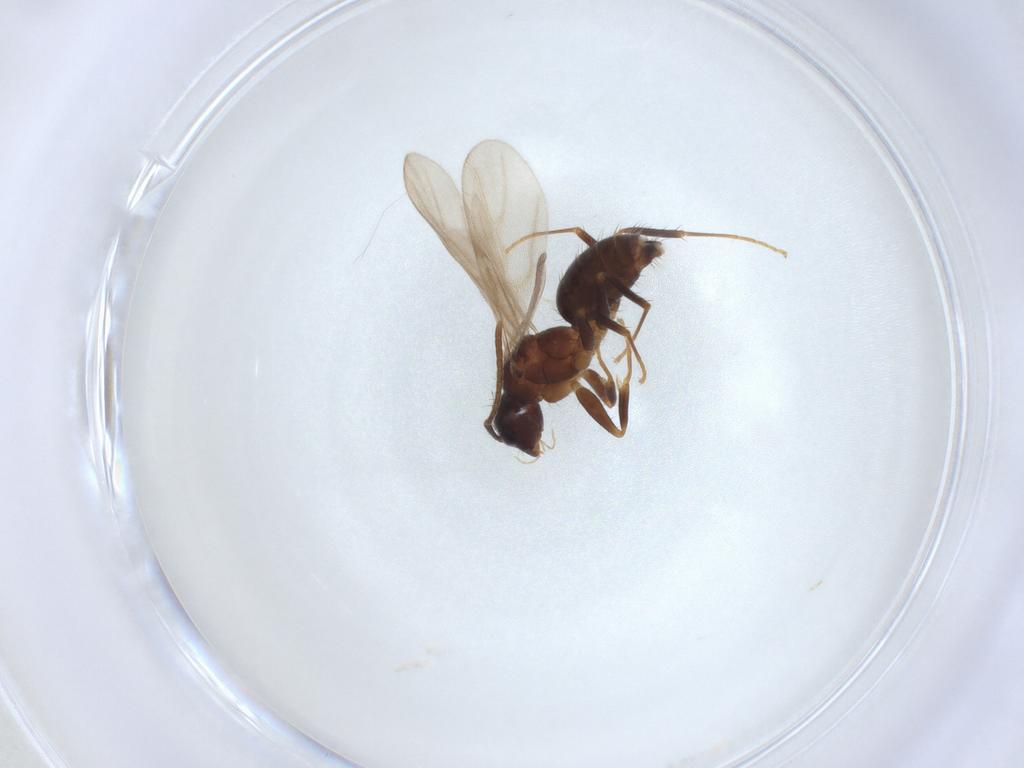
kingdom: Animalia
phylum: Arthropoda
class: Insecta
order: Hymenoptera
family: Formicidae
